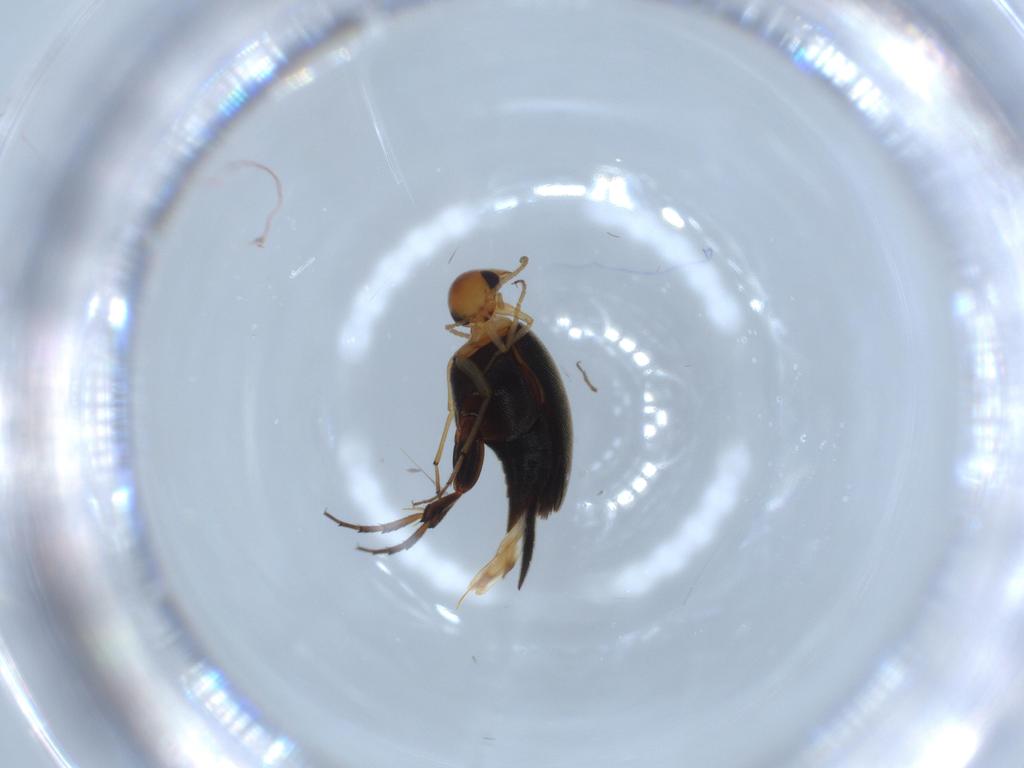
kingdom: Animalia
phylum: Arthropoda
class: Insecta
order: Coleoptera
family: Mordellidae
